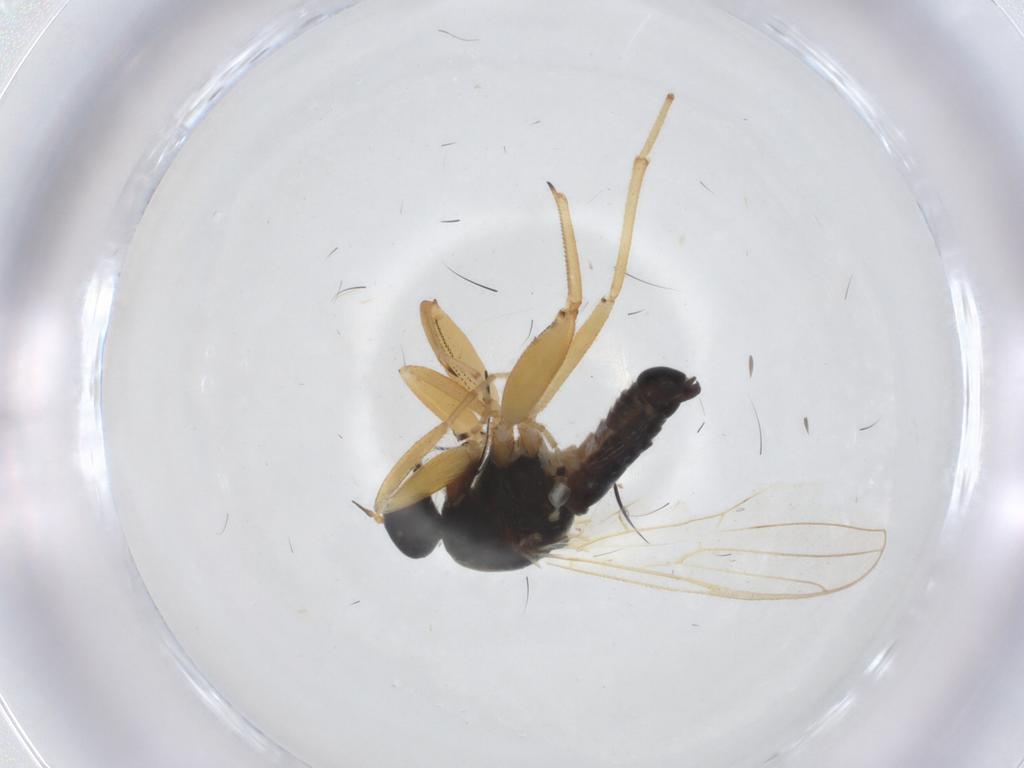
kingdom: Animalia
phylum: Arthropoda
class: Insecta
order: Diptera
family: Hybotidae
